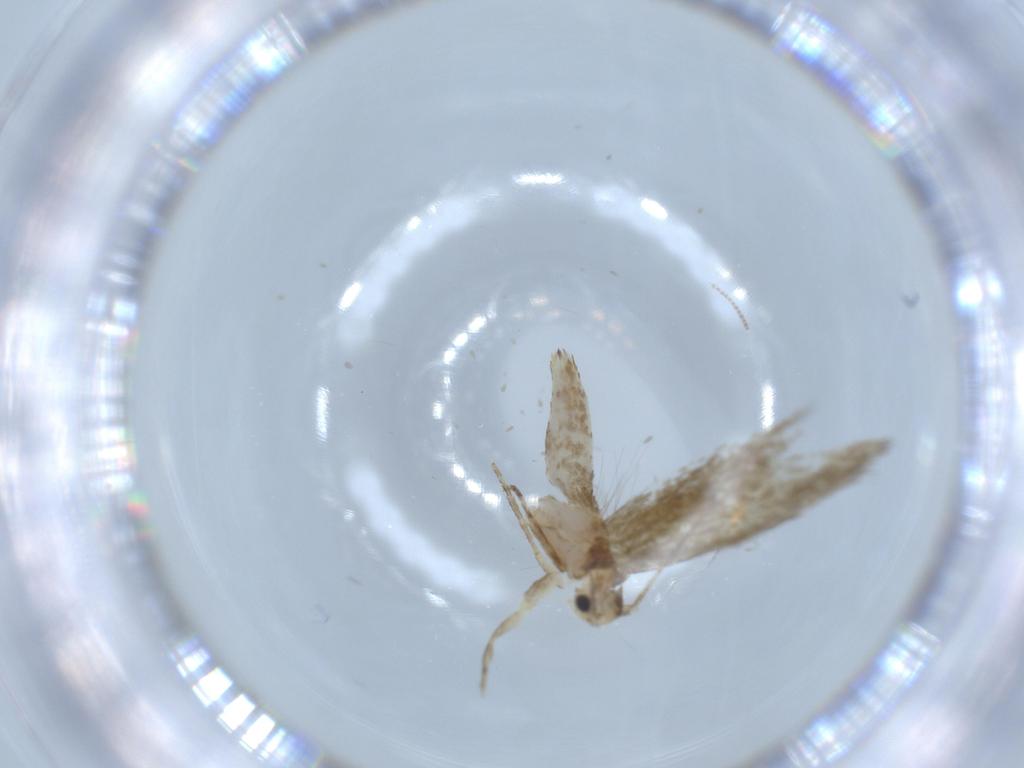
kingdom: Animalia
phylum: Arthropoda
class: Insecta
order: Lepidoptera
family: Tineidae
